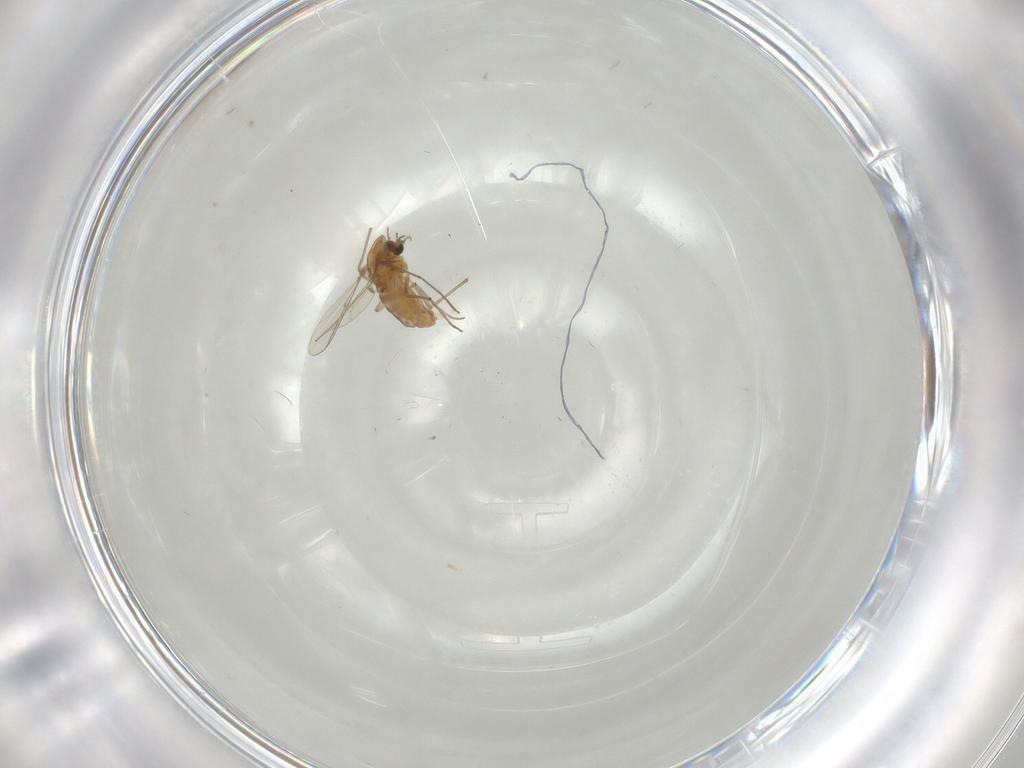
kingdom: Animalia
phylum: Arthropoda
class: Insecta
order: Diptera
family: Chironomidae
